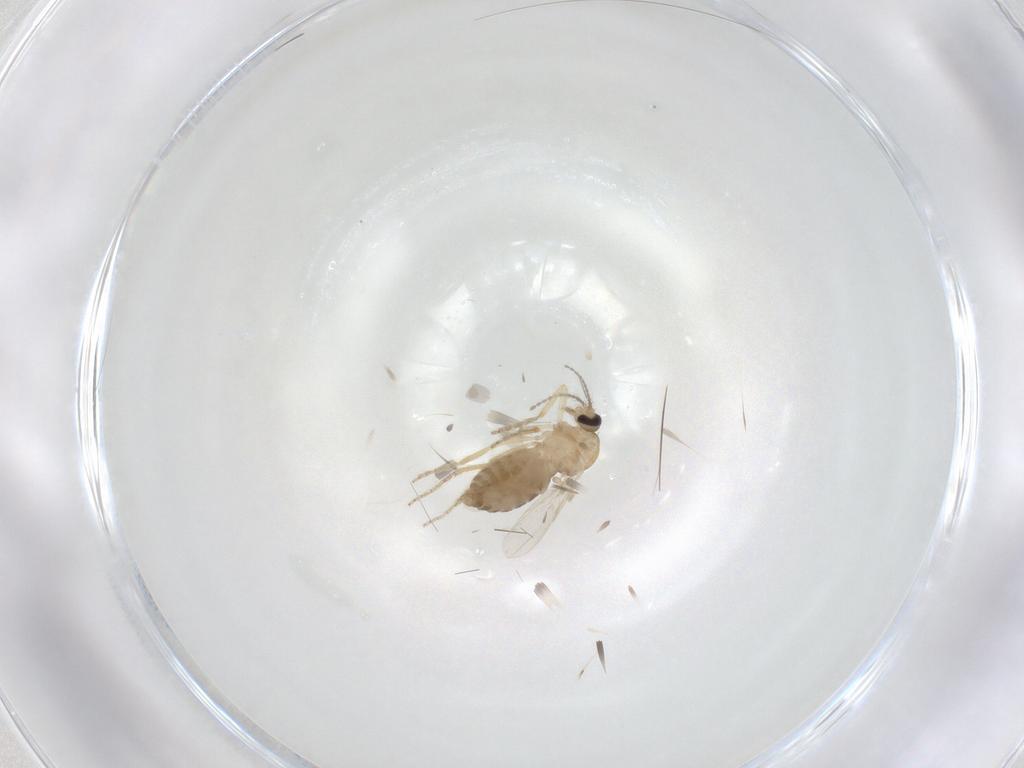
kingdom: Animalia
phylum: Arthropoda
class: Insecta
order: Diptera
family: Ceratopogonidae
